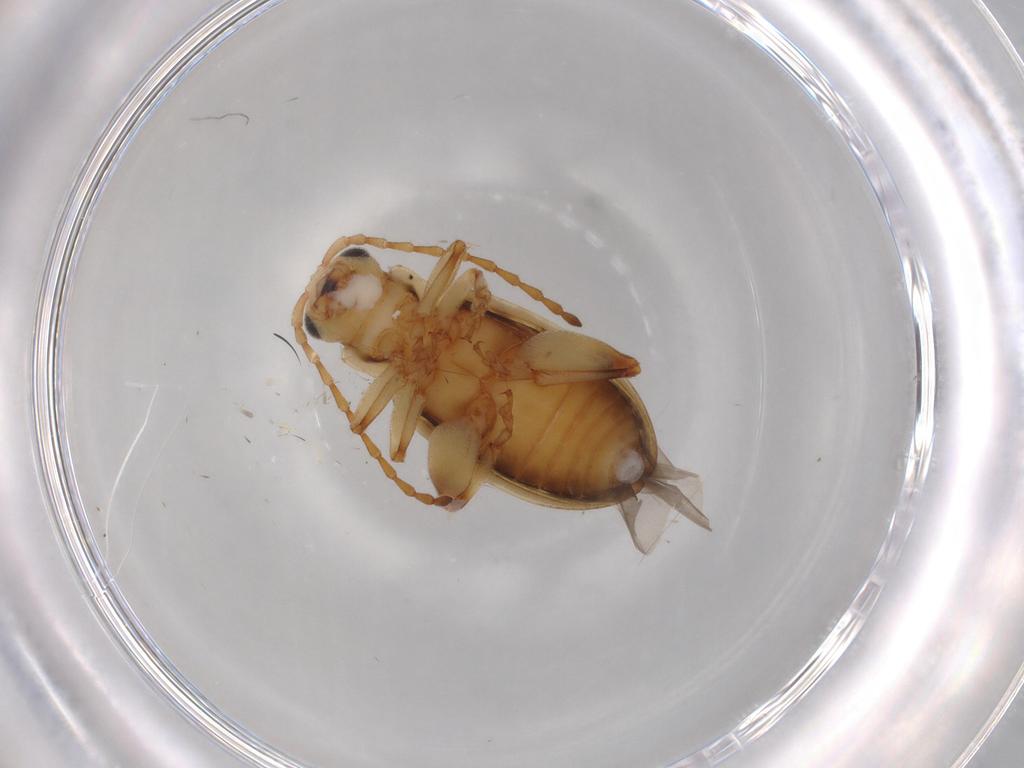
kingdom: Animalia
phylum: Arthropoda
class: Insecta
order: Coleoptera
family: Chrysomelidae
